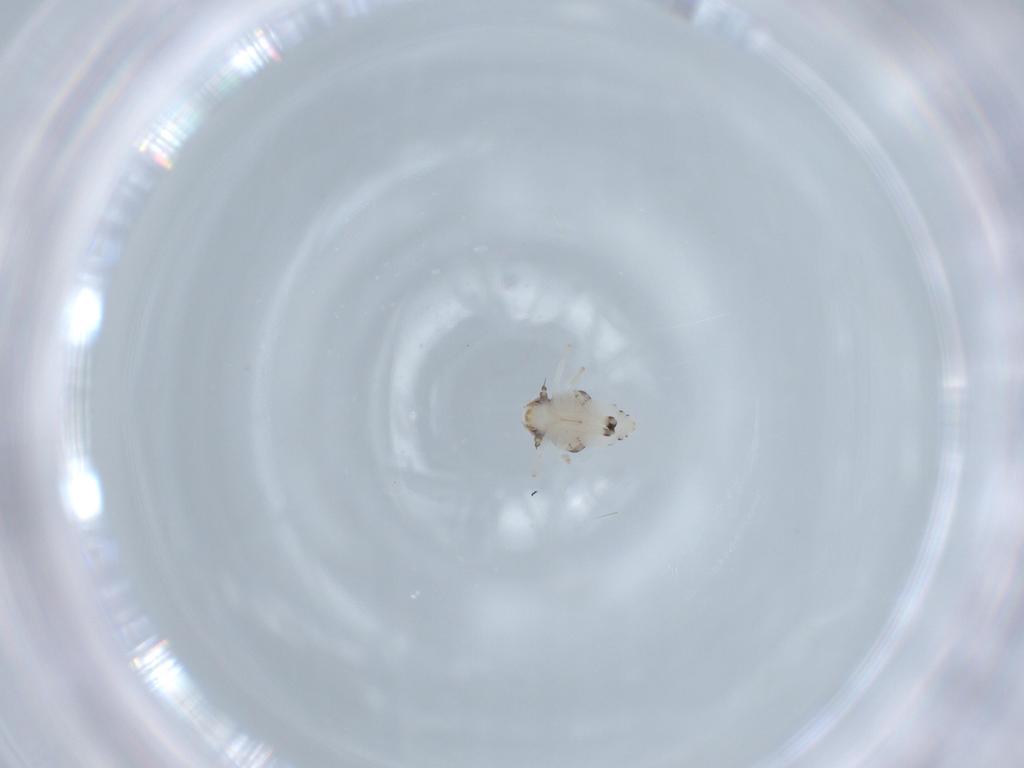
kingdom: Animalia
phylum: Arthropoda
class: Insecta
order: Hemiptera
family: Nogodinidae
